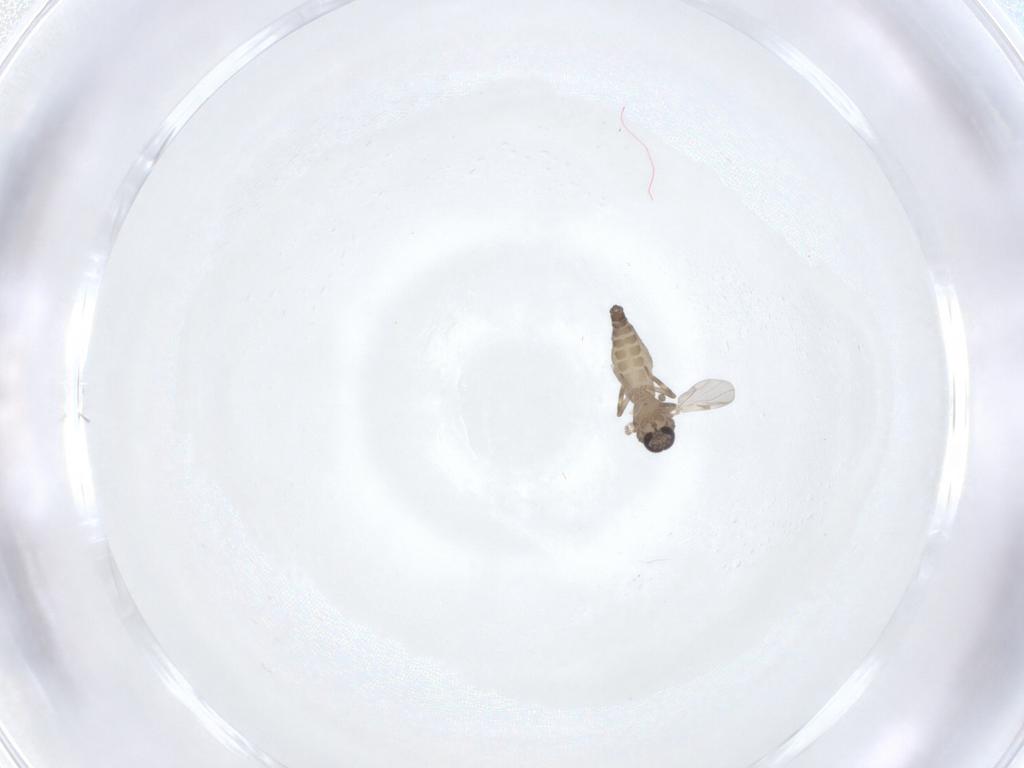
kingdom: Animalia
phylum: Arthropoda
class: Insecta
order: Diptera
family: Ceratopogonidae
